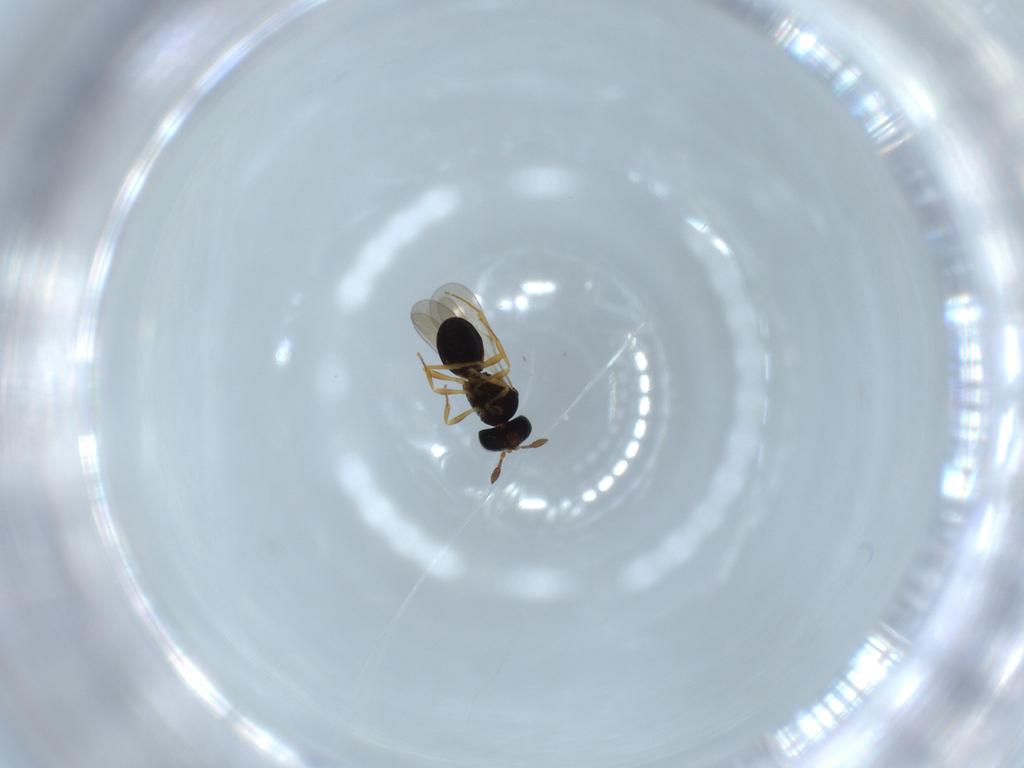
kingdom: Animalia
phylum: Arthropoda
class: Insecta
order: Hymenoptera
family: Scelionidae
